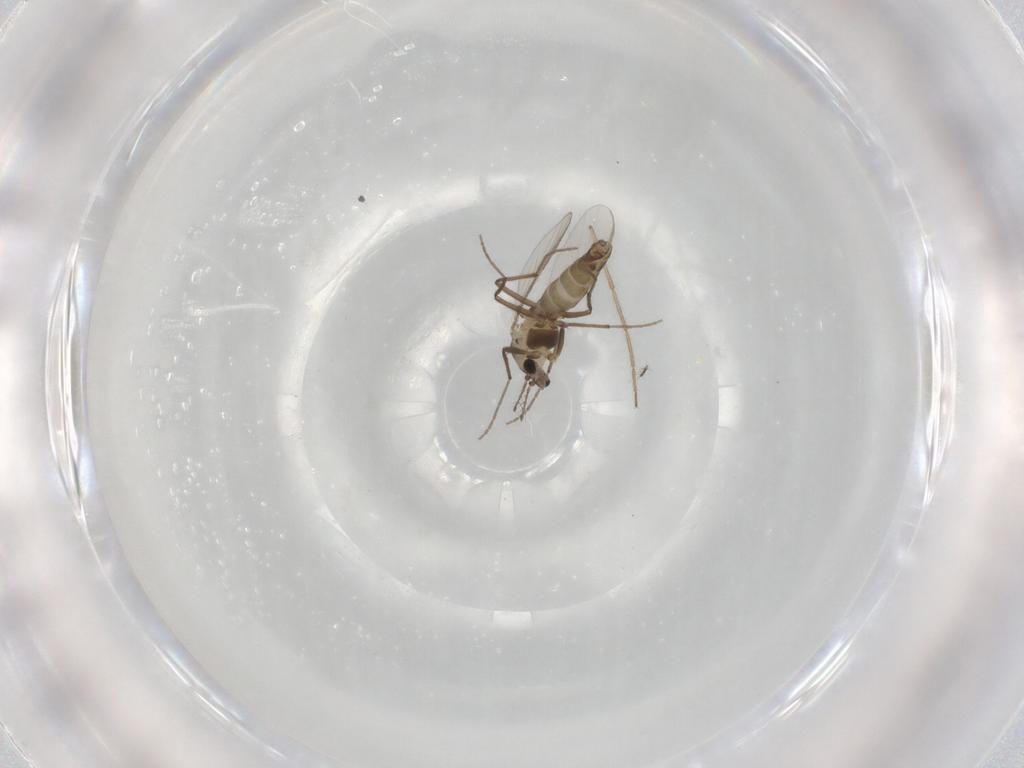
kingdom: Animalia
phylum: Arthropoda
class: Insecta
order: Diptera
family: Chironomidae
